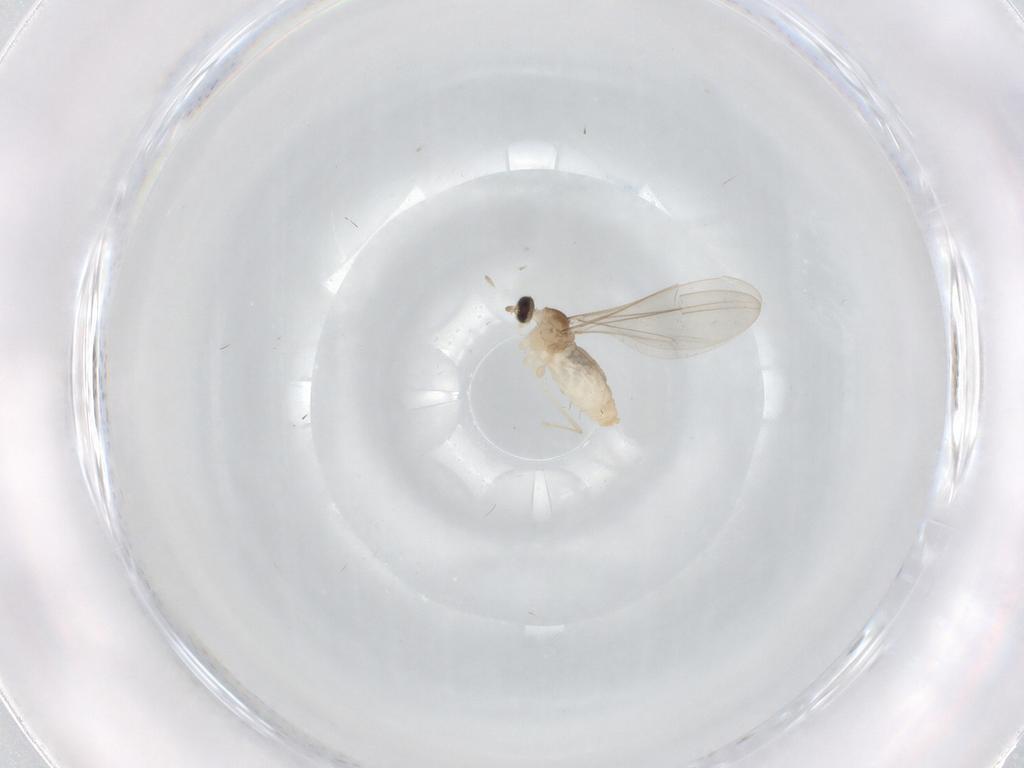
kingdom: Animalia
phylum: Arthropoda
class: Insecta
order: Diptera
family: Cecidomyiidae
